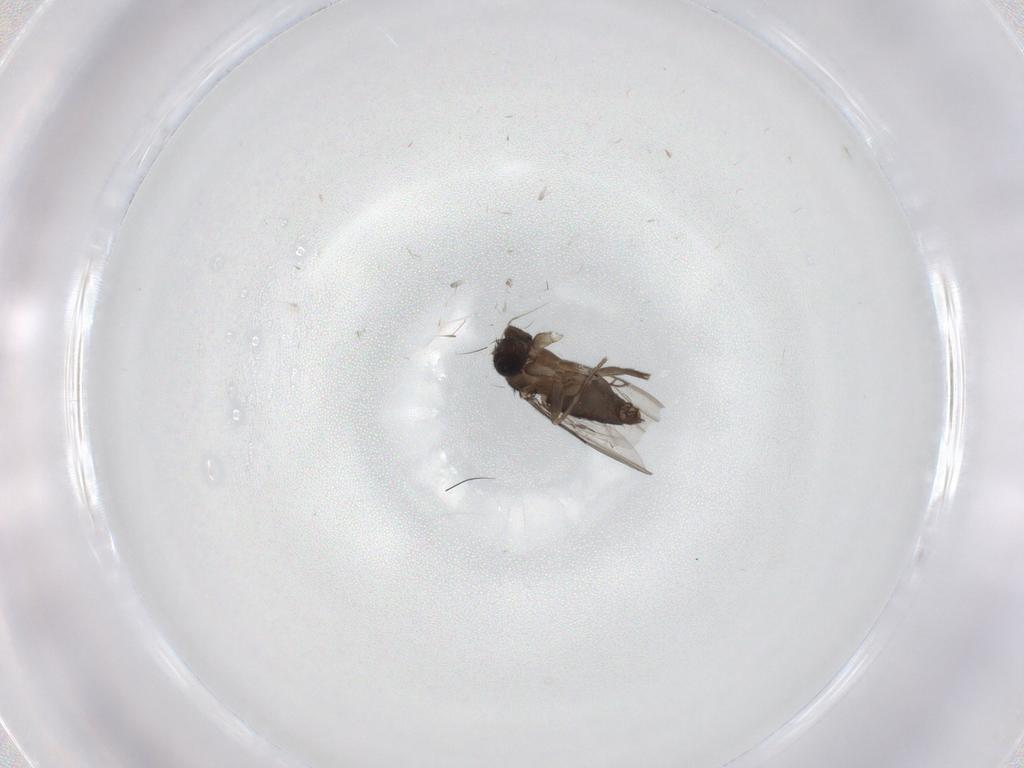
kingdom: Animalia
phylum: Arthropoda
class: Insecta
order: Diptera
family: Phoridae
